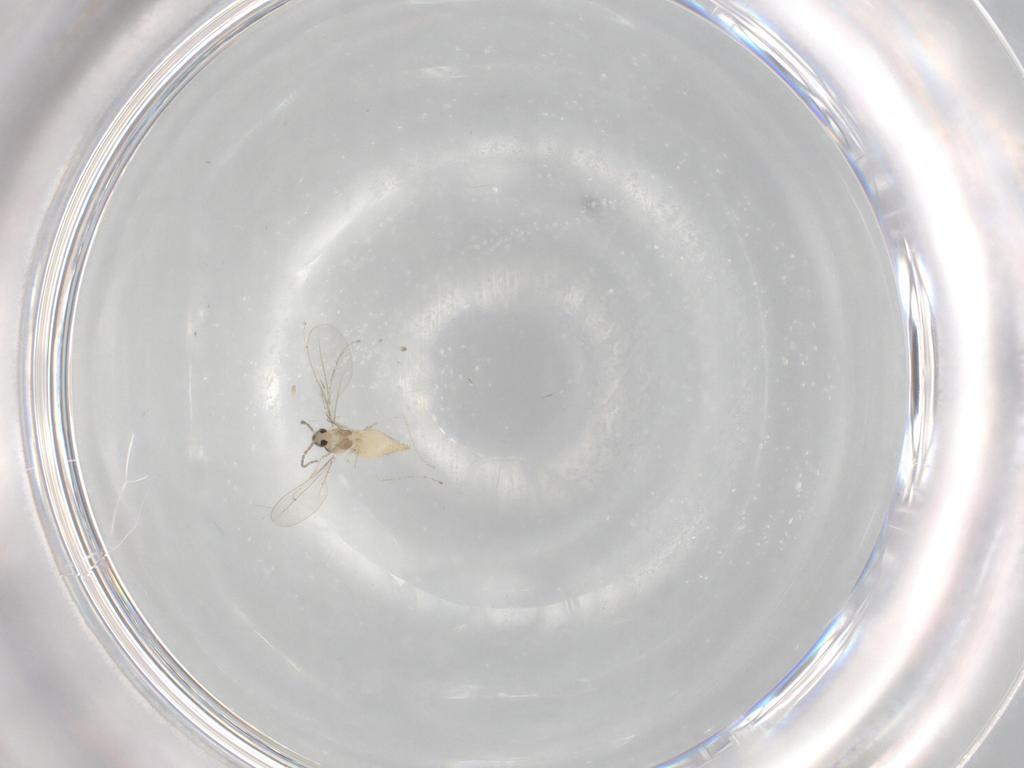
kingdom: Animalia
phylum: Arthropoda
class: Insecta
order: Diptera
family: Cecidomyiidae
